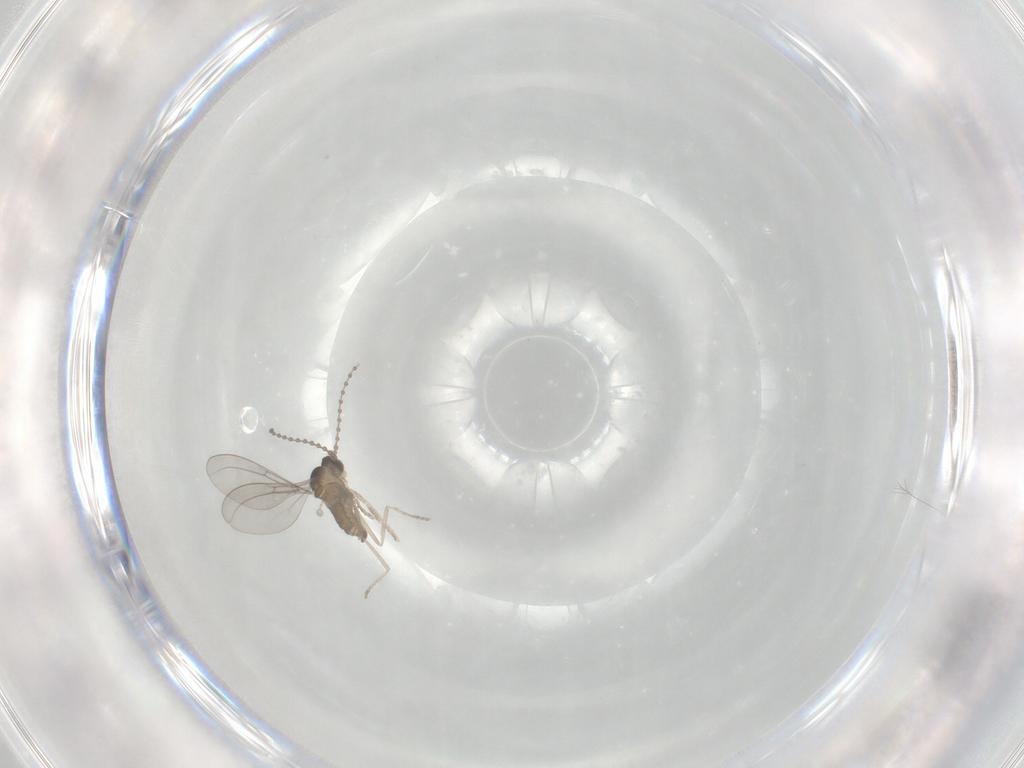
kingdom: Animalia
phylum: Arthropoda
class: Insecta
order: Diptera
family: Cecidomyiidae
